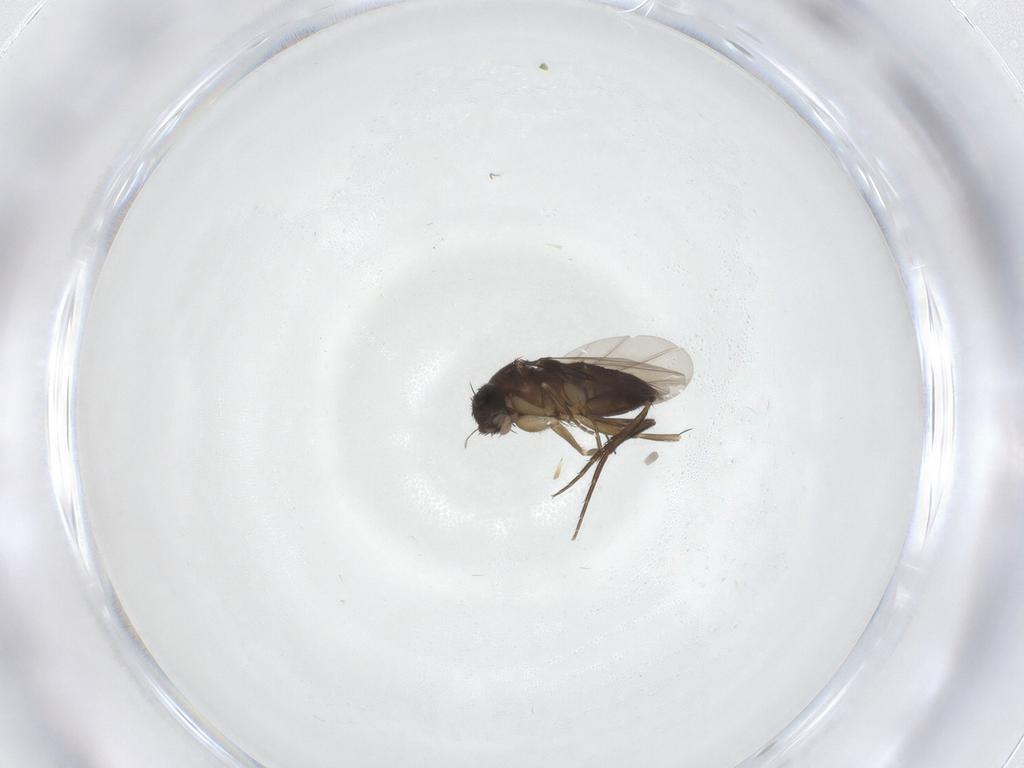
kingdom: Animalia
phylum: Arthropoda
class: Insecta
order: Diptera
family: Phoridae
